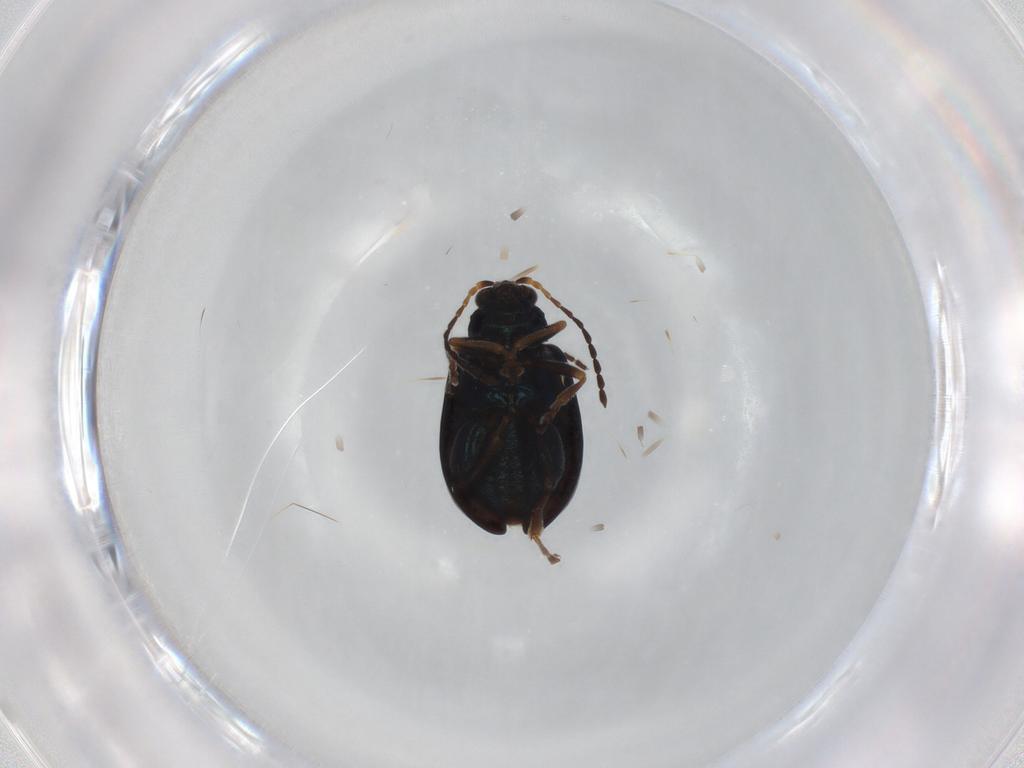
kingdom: Animalia
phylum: Arthropoda
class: Insecta
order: Coleoptera
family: Chrysomelidae
